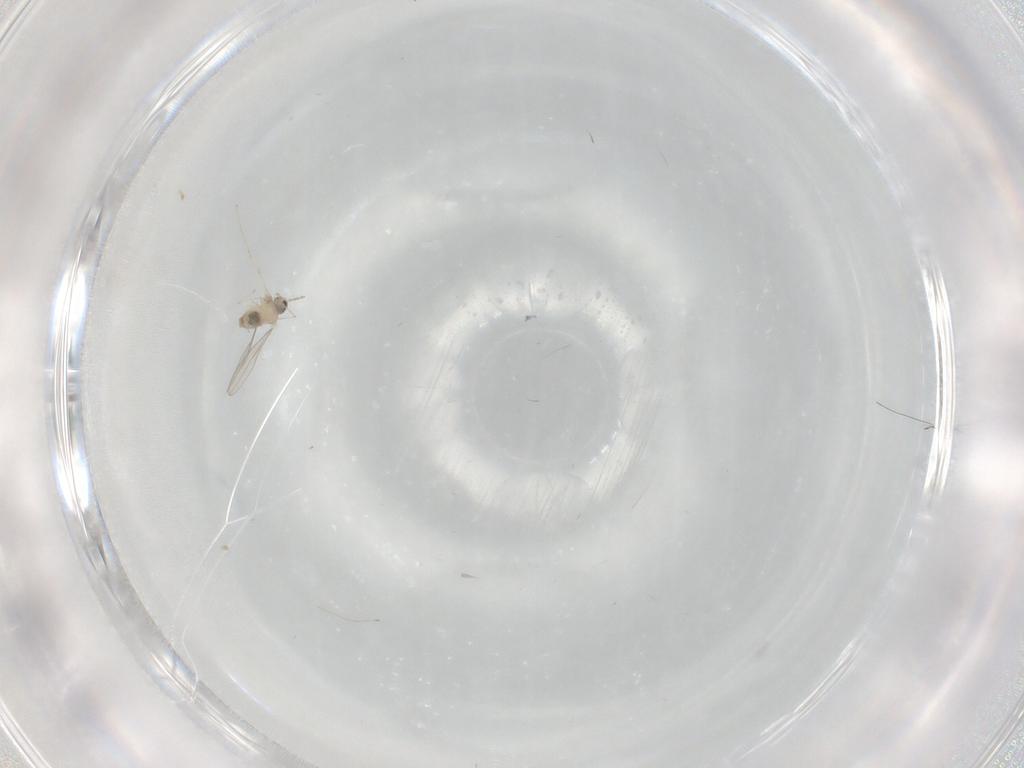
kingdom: Animalia
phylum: Arthropoda
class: Insecta
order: Diptera
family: Cecidomyiidae
